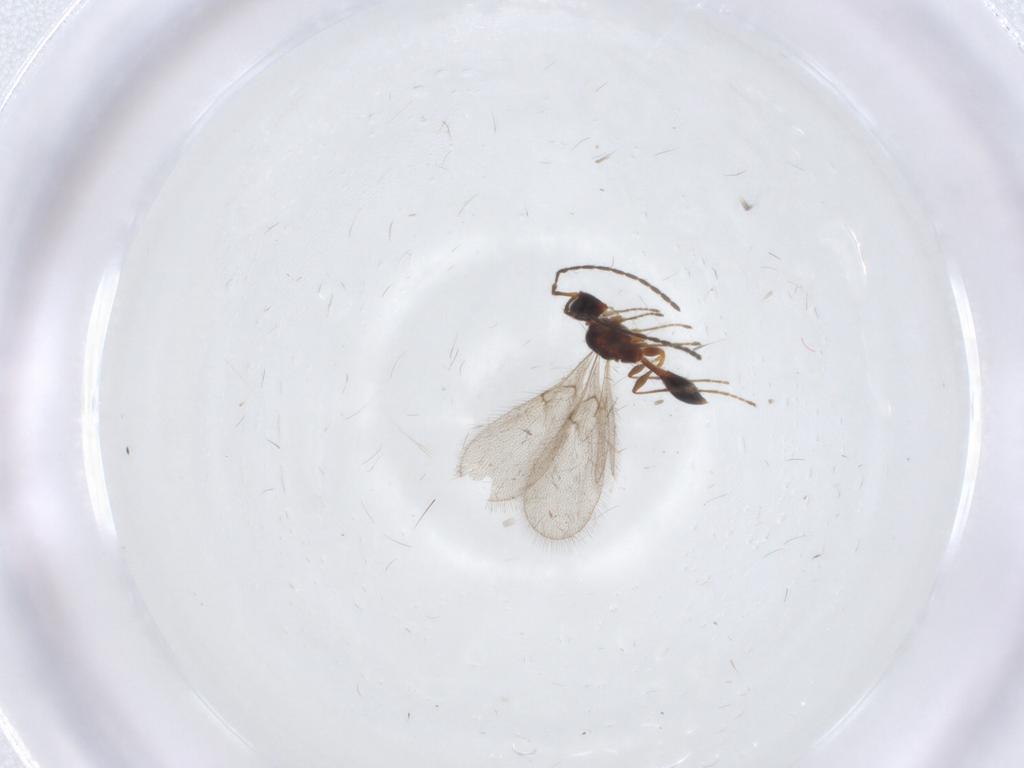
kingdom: Animalia
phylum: Arthropoda
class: Insecta
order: Hymenoptera
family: Diapriidae
